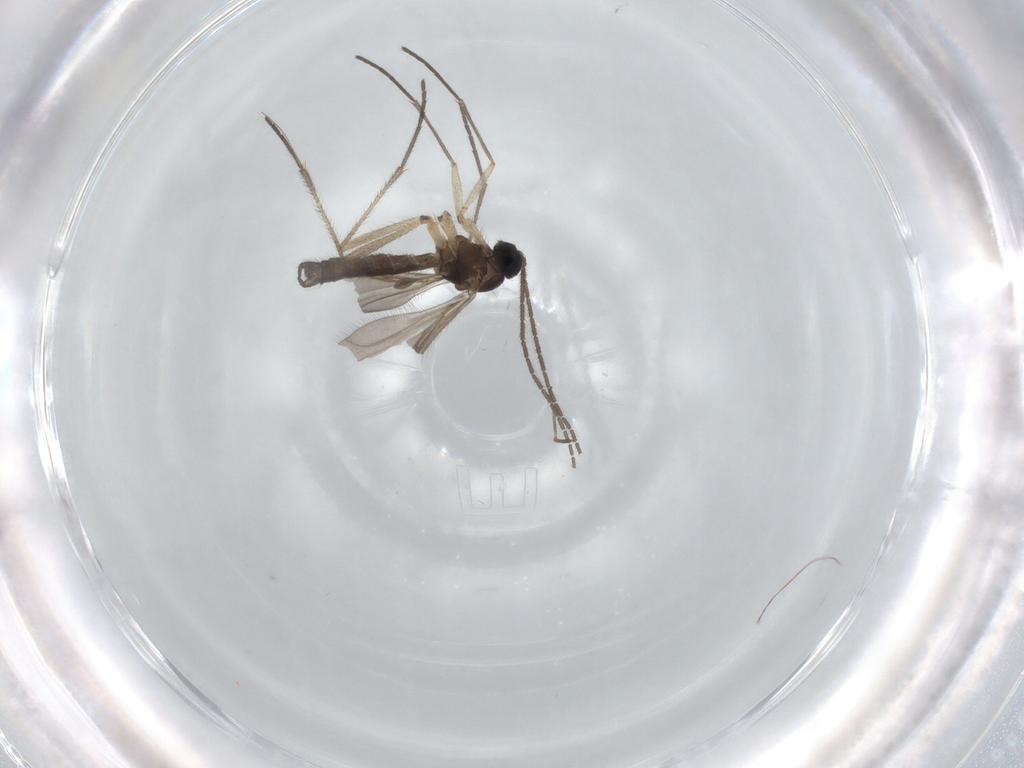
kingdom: Animalia
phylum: Arthropoda
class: Insecta
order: Diptera
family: Sciaridae
